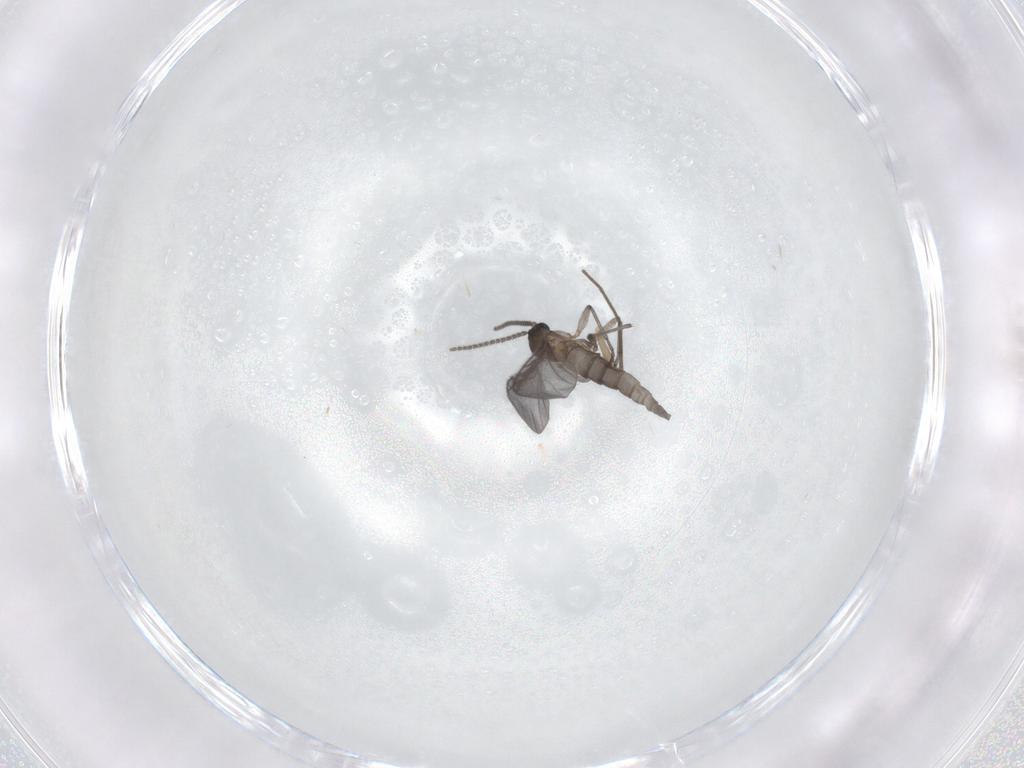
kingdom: Animalia
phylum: Arthropoda
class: Insecta
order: Diptera
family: Sciaridae
